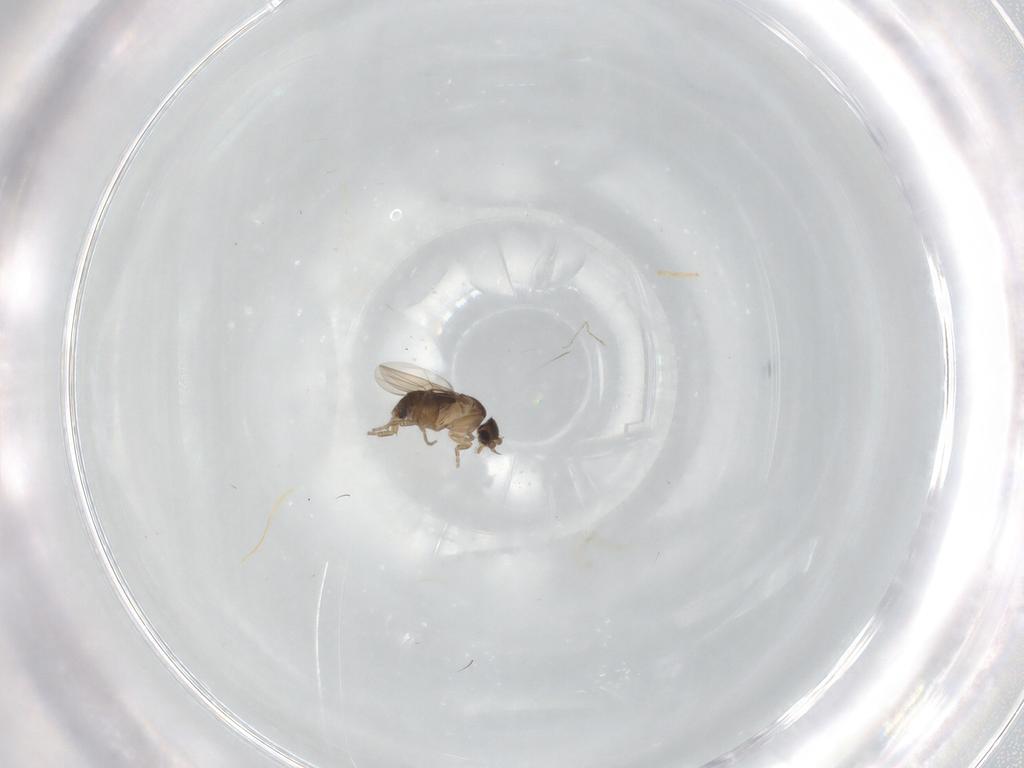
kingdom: Animalia
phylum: Arthropoda
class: Insecta
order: Diptera
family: Phoridae
